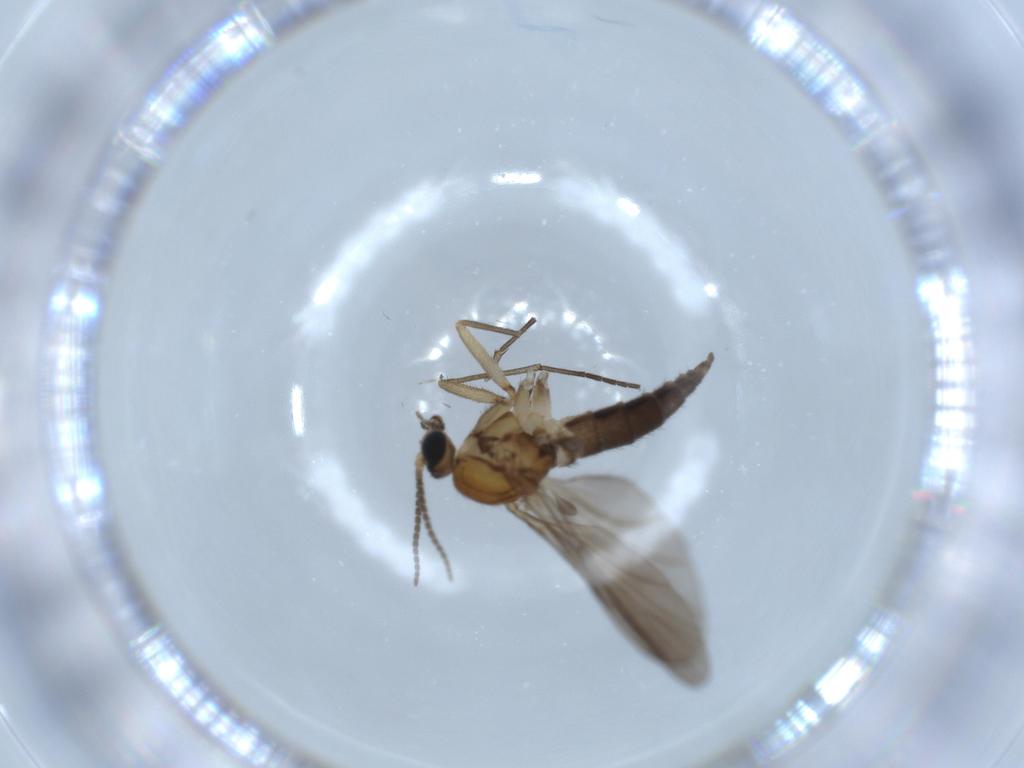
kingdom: Animalia
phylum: Arthropoda
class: Insecta
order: Diptera
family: Sciaridae
